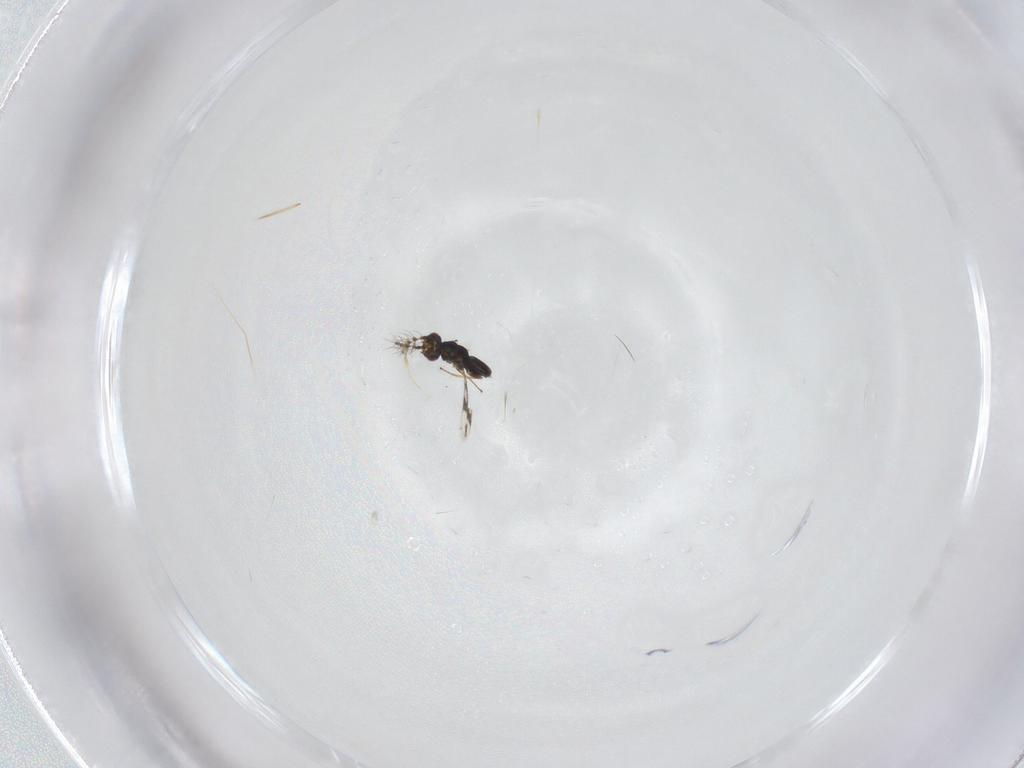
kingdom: Animalia
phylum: Arthropoda
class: Insecta
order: Hymenoptera
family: Eulophidae
